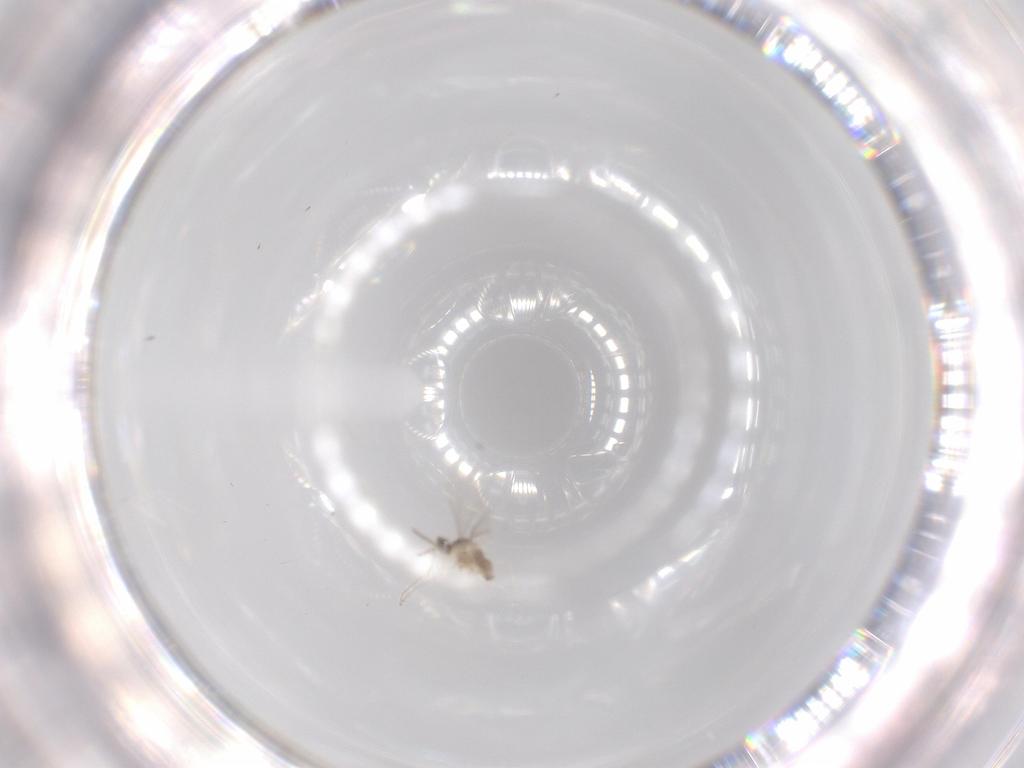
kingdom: Animalia
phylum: Arthropoda
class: Insecta
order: Diptera
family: Cecidomyiidae
